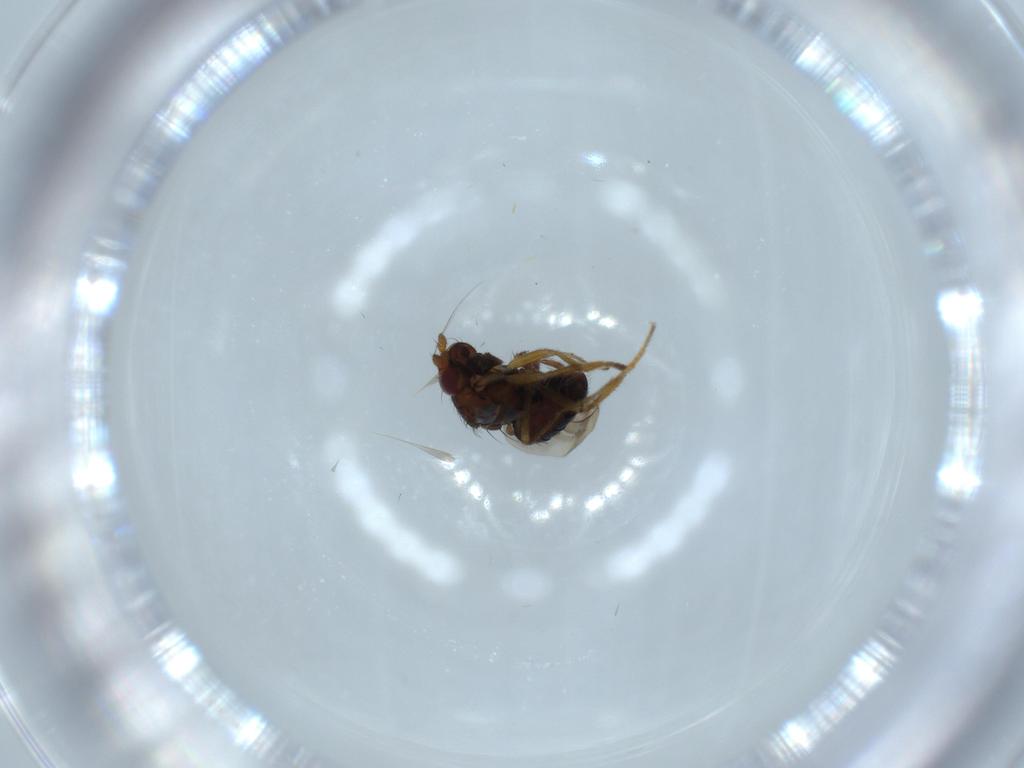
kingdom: Animalia
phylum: Arthropoda
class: Insecta
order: Diptera
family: Sphaeroceridae
